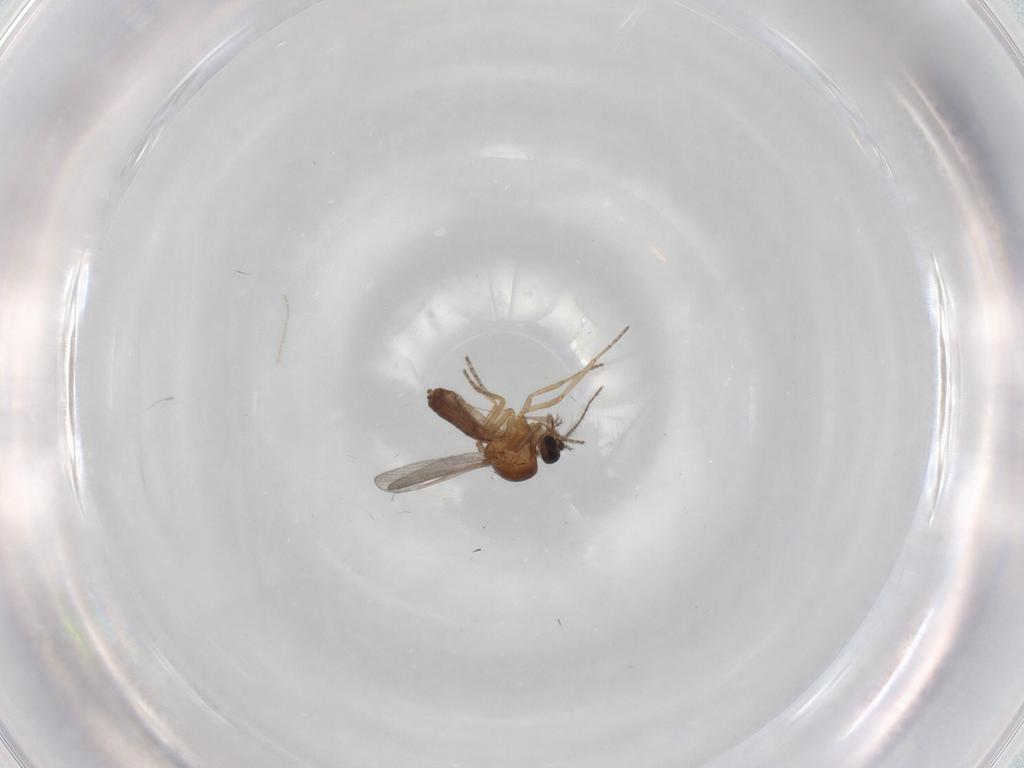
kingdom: Animalia
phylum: Arthropoda
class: Insecta
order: Diptera
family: Ceratopogonidae
